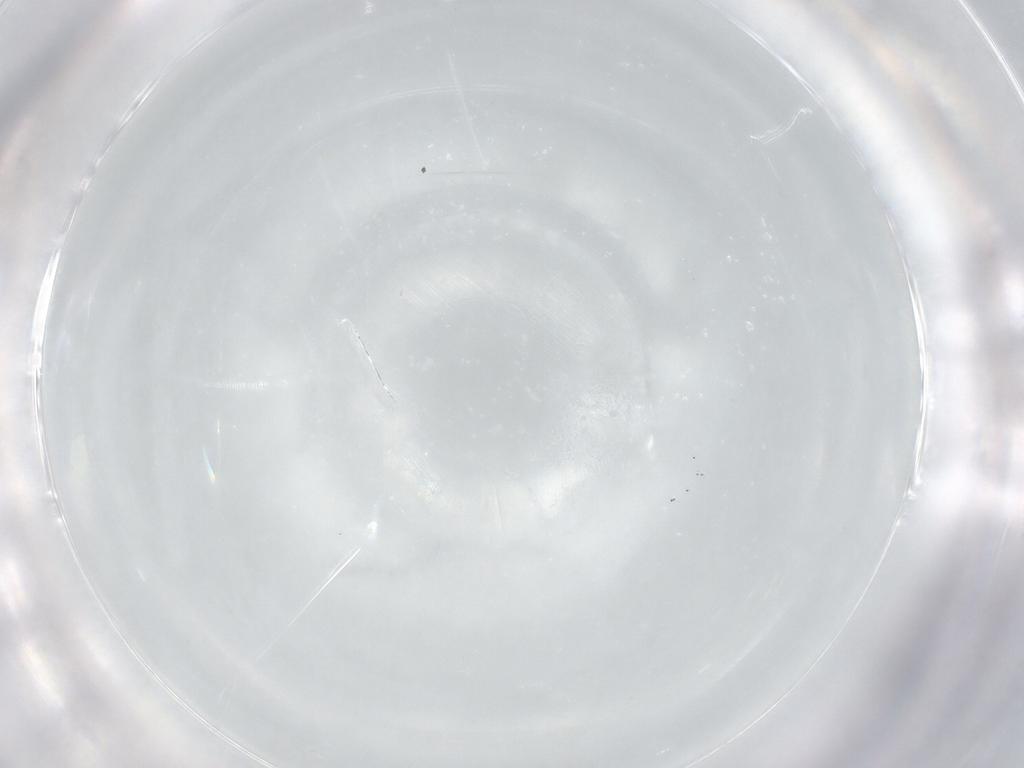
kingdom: Animalia
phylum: Arthropoda
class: Collembola
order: Entomobryomorpha
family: Entomobryidae
